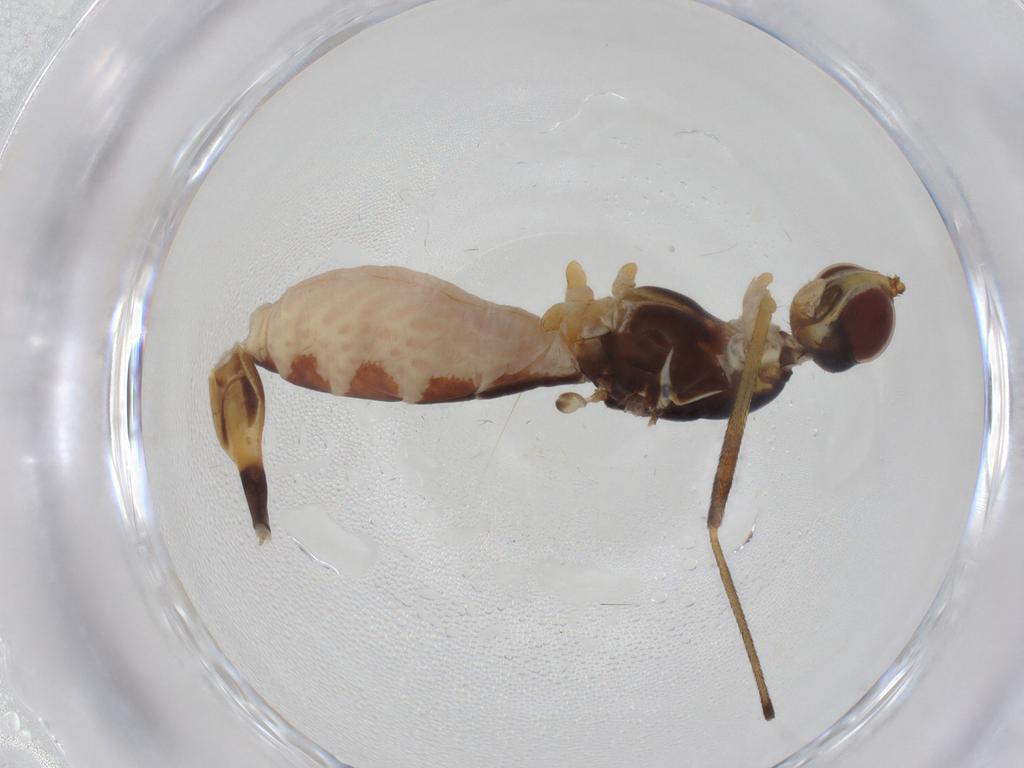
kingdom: Animalia
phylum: Arthropoda
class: Insecta
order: Diptera
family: Micropezidae
